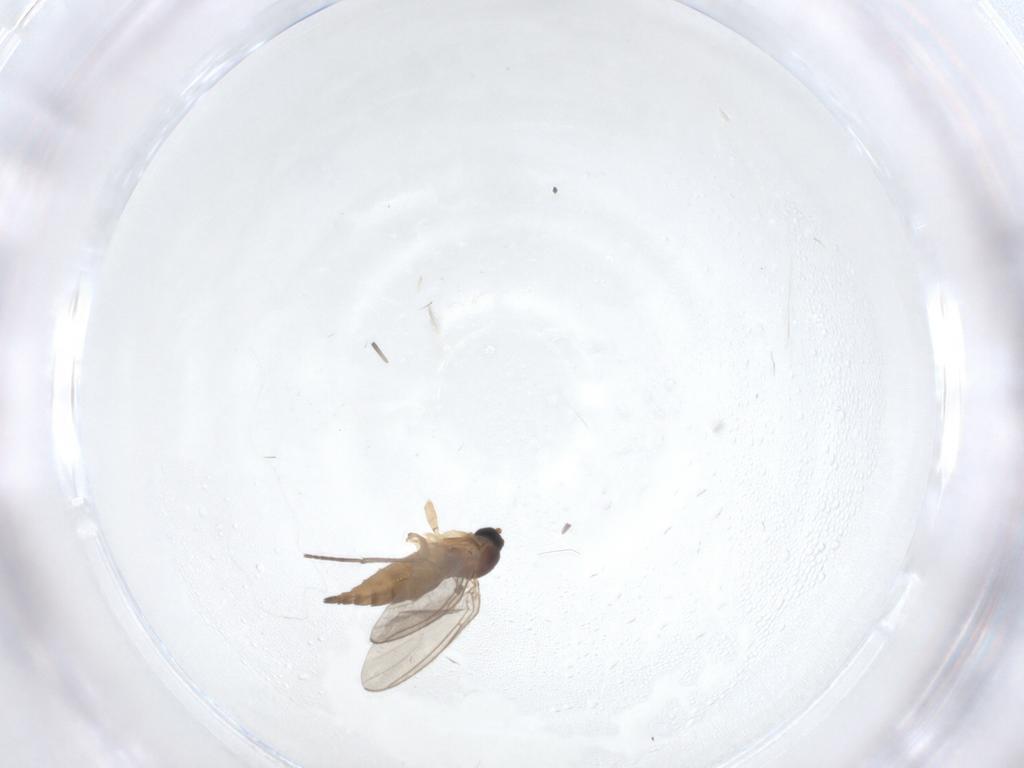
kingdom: Animalia
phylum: Arthropoda
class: Insecta
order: Diptera
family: Sciaridae
